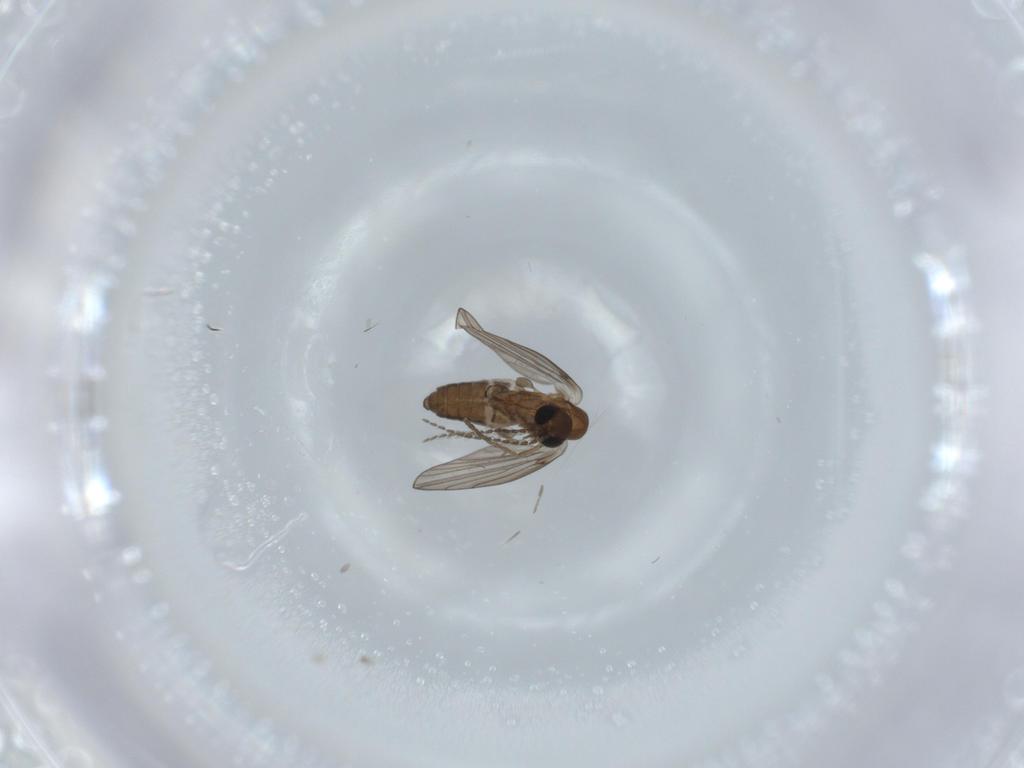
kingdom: Animalia
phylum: Arthropoda
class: Insecta
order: Diptera
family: Psychodidae
